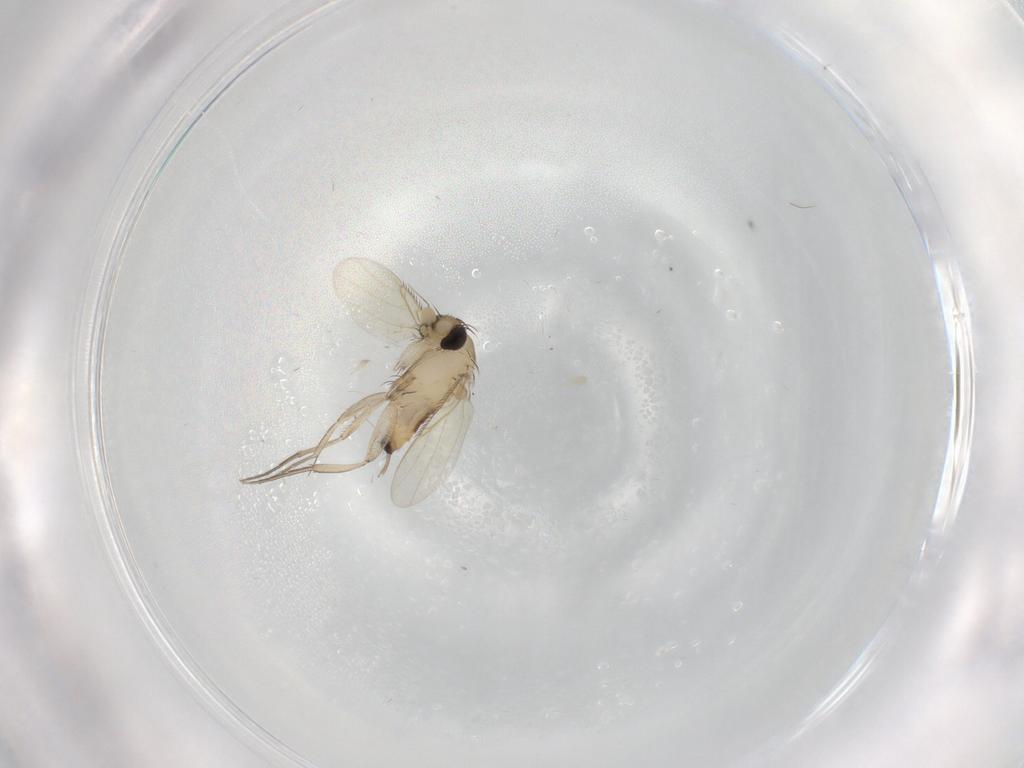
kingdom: Animalia
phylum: Arthropoda
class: Insecta
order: Diptera
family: Phoridae
